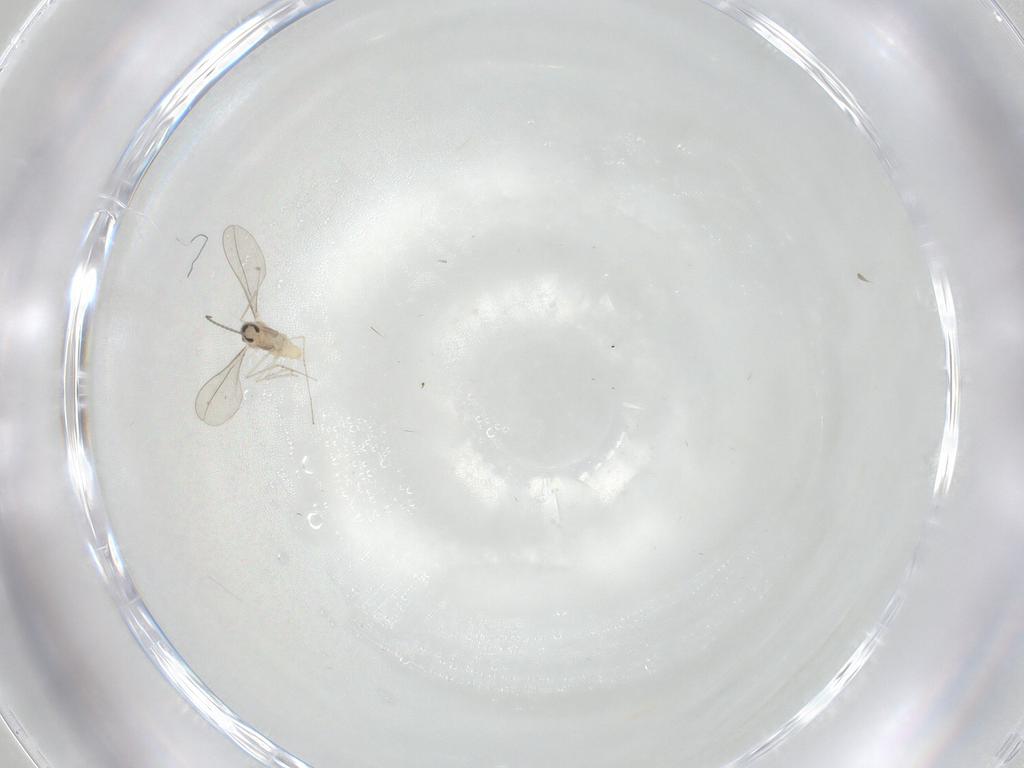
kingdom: Animalia
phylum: Arthropoda
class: Insecta
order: Diptera
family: Cecidomyiidae
